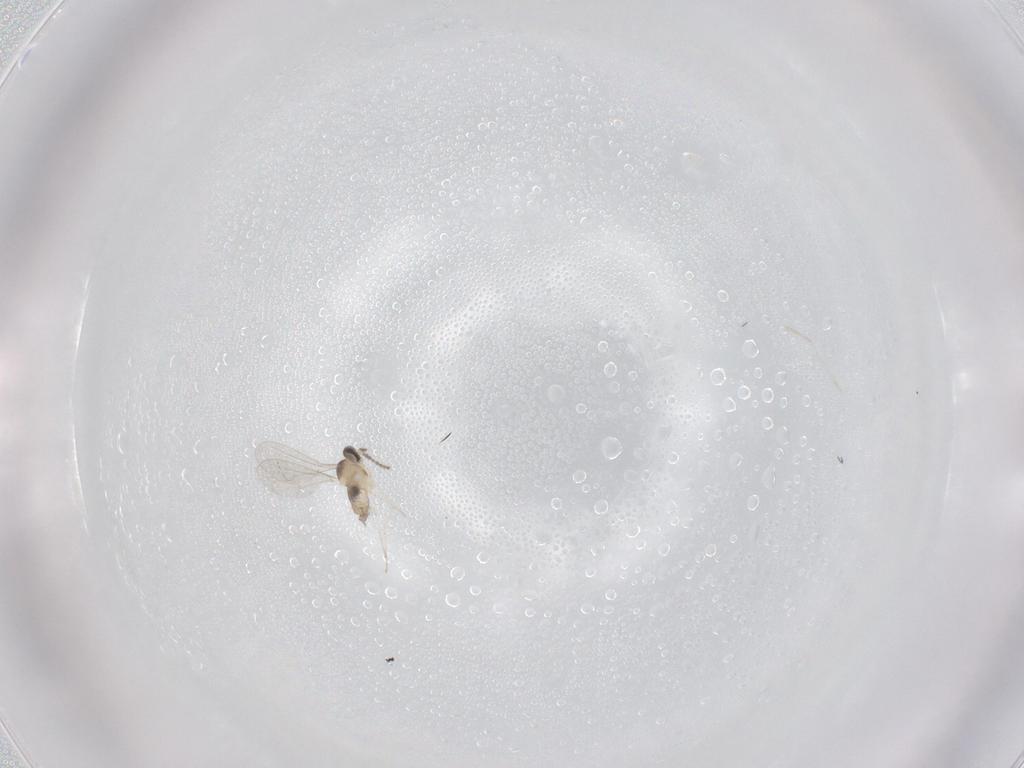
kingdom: Animalia
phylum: Arthropoda
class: Insecta
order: Diptera
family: Cecidomyiidae
